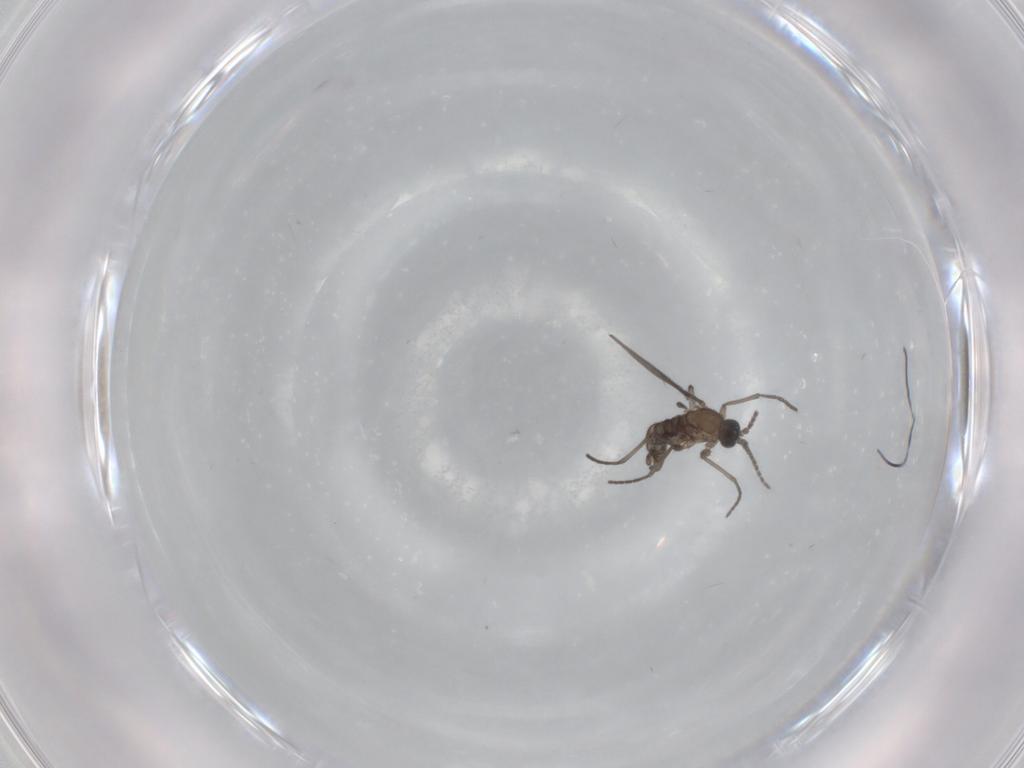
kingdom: Animalia
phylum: Arthropoda
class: Insecta
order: Diptera
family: Sciaridae
